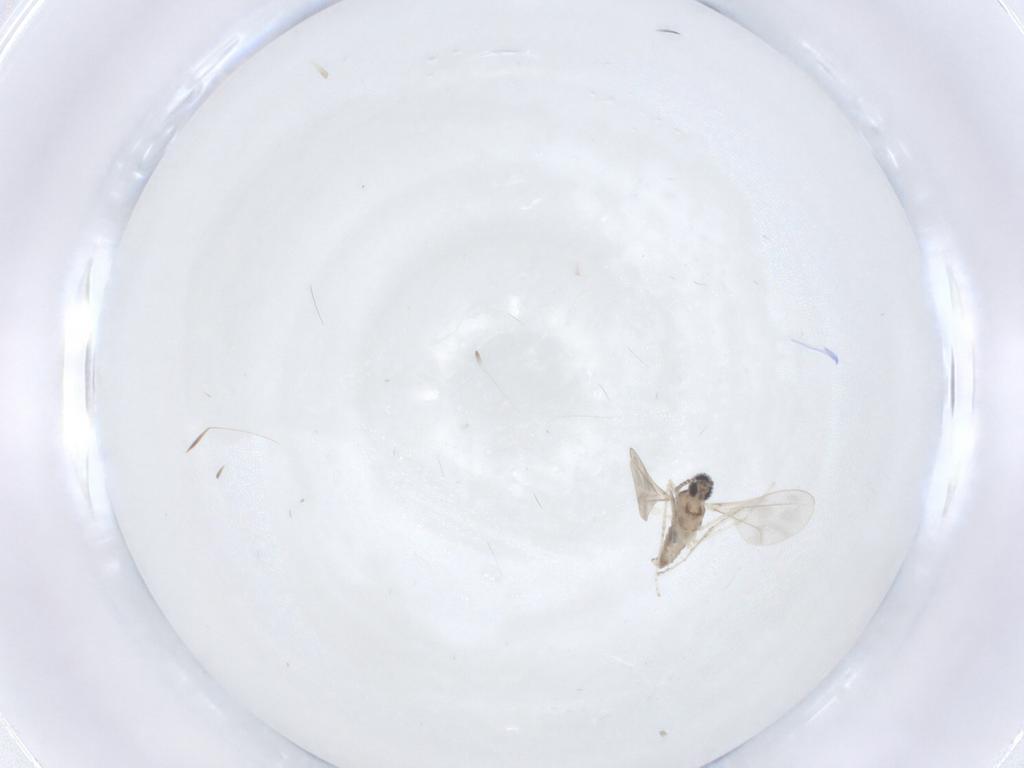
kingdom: Animalia
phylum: Arthropoda
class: Insecta
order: Diptera
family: Cecidomyiidae
